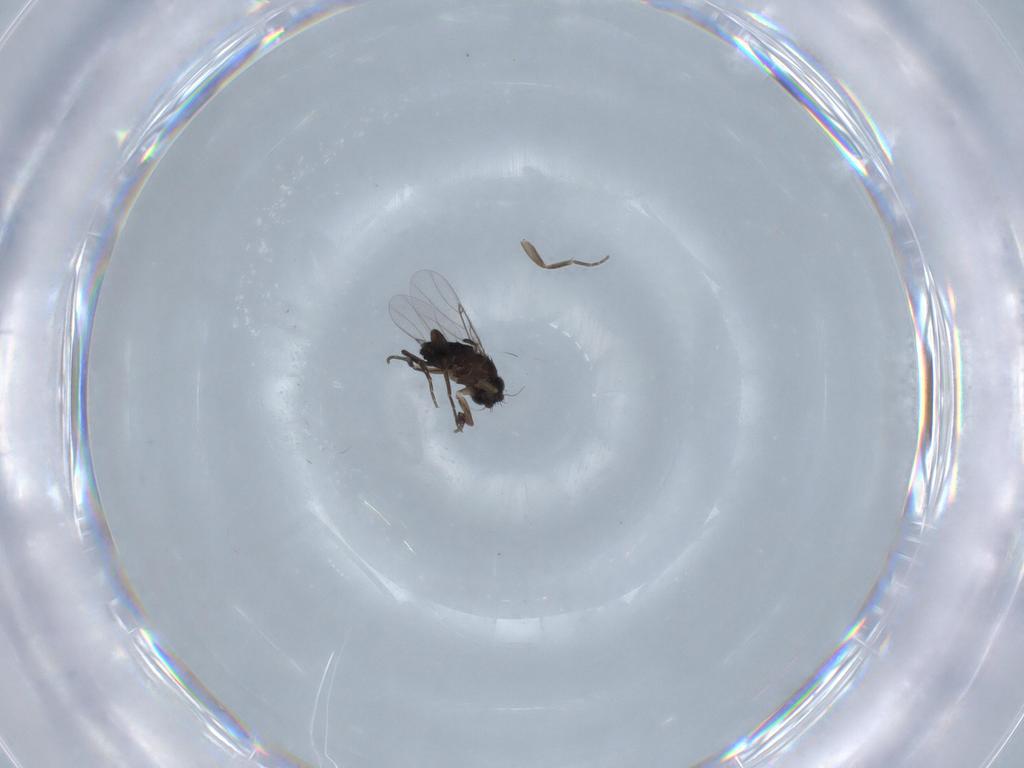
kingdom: Animalia
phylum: Arthropoda
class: Insecta
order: Diptera
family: Phoridae
